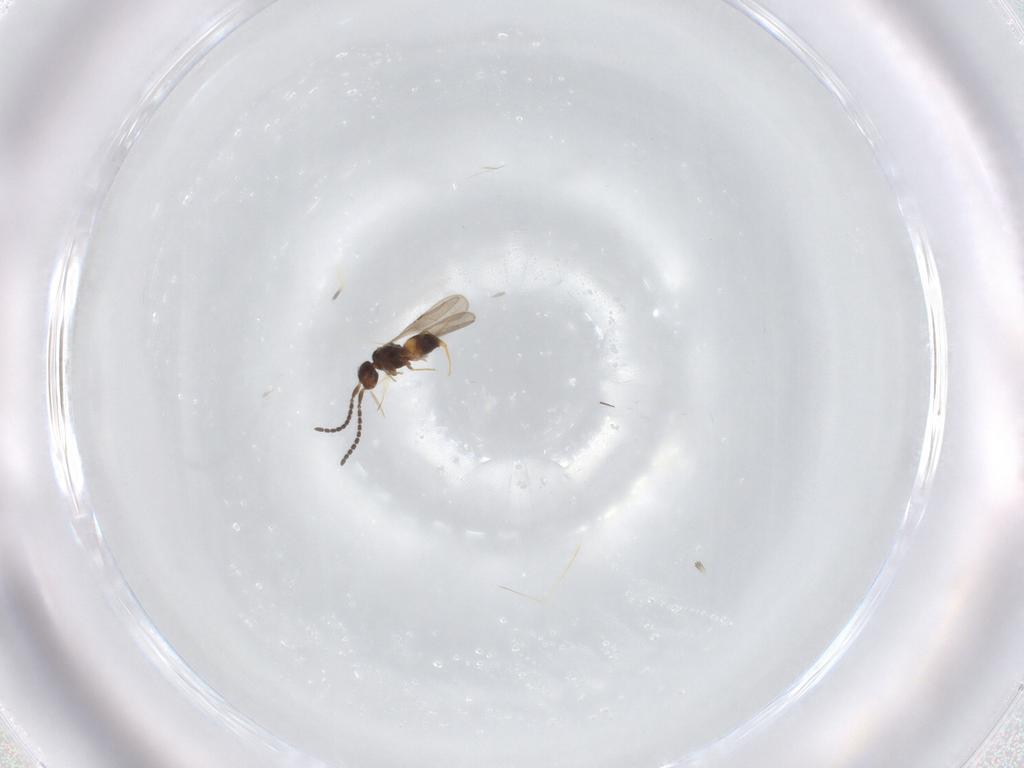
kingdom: Animalia
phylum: Arthropoda
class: Insecta
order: Hymenoptera
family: Ceraphronidae
